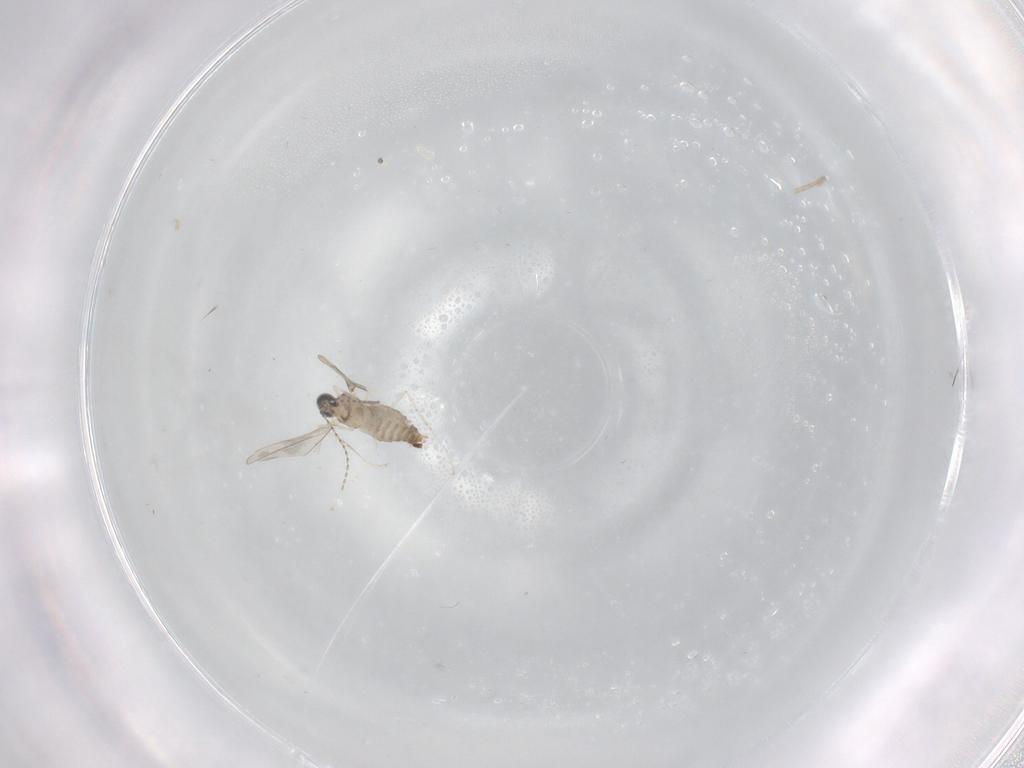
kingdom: Animalia
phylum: Arthropoda
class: Insecta
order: Diptera
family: Cecidomyiidae
